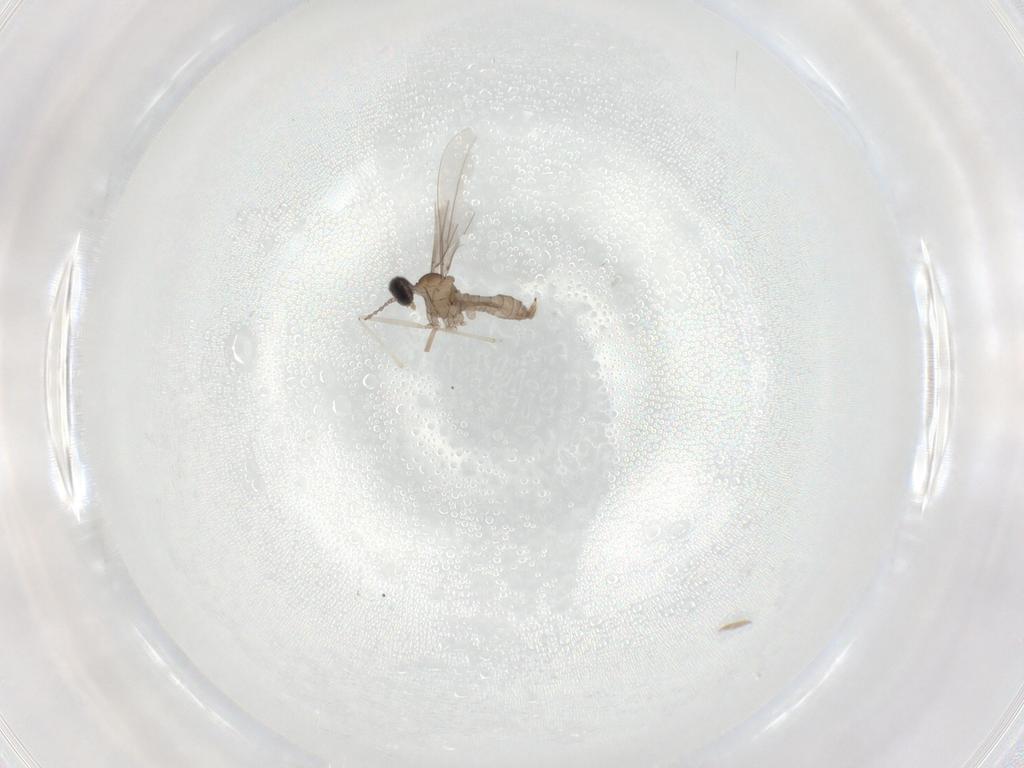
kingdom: Animalia
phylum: Arthropoda
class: Insecta
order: Diptera
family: Cecidomyiidae
